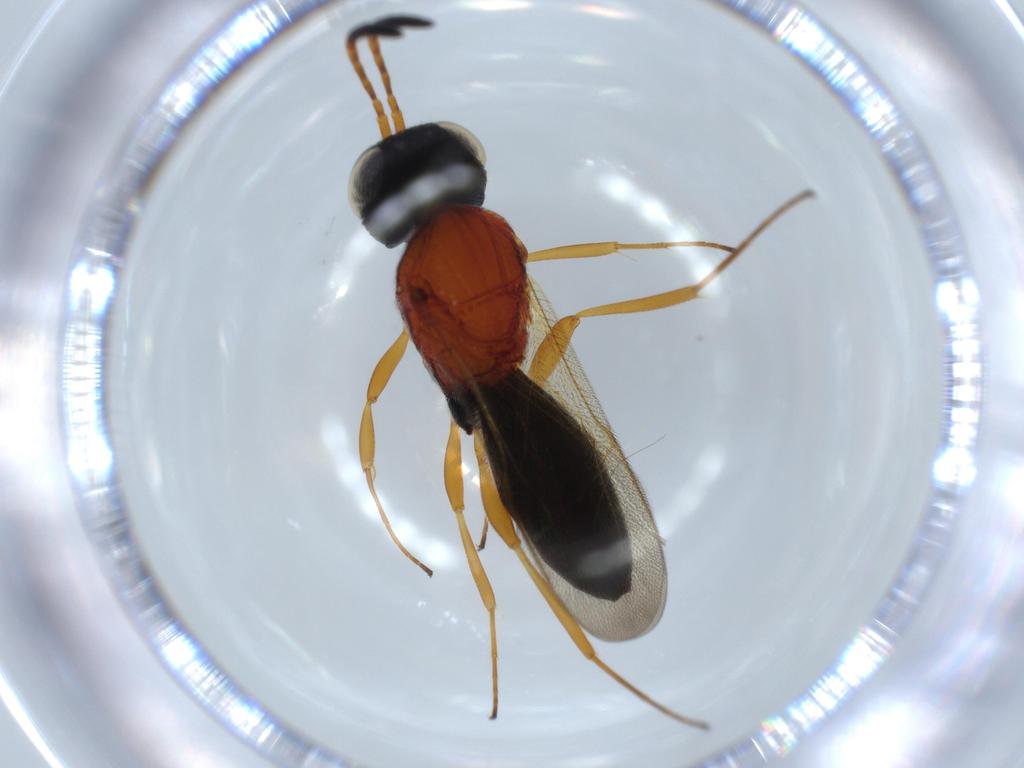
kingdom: Animalia
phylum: Arthropoda
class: Insecta
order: Hymenoptera
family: Scelionidae
